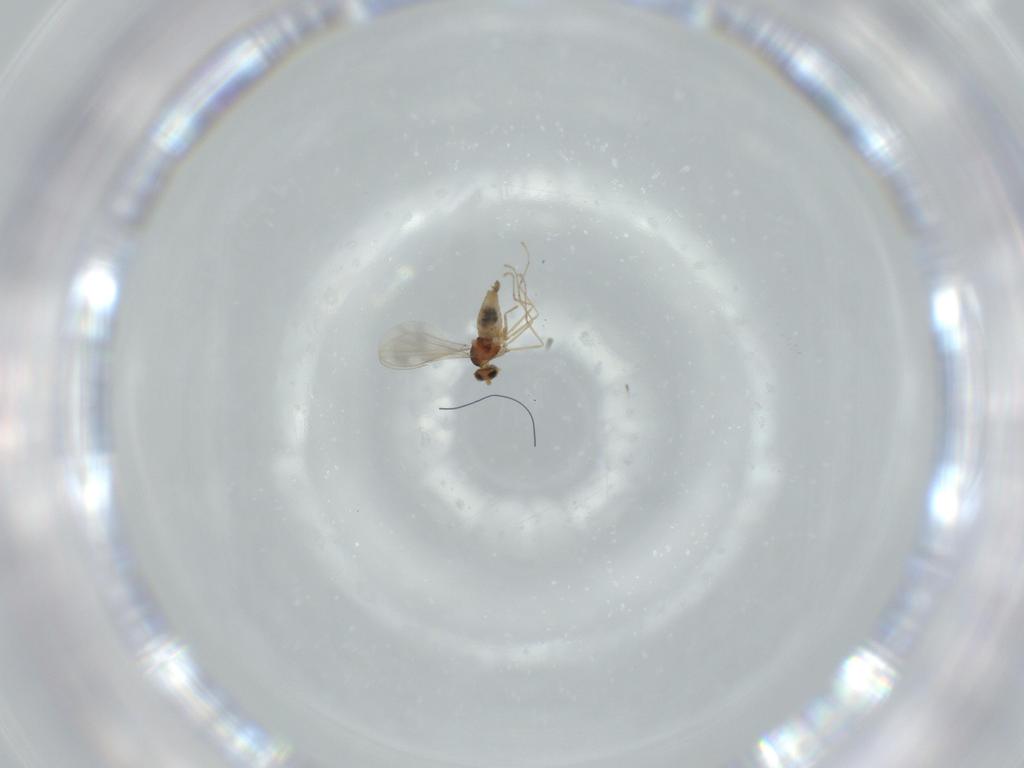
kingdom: Animalia
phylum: Arthropoda
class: Insecta
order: Diptera
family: Cecidomyiidae
